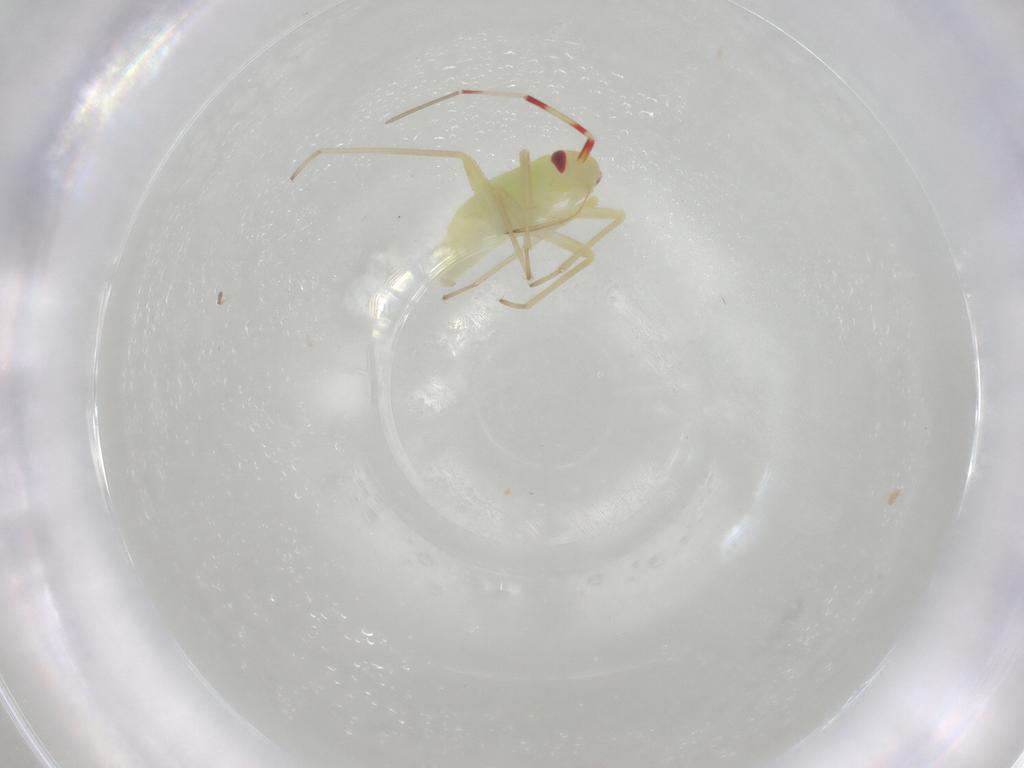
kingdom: Animalia
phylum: Arthropoda
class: Insecta
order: Hemiptera
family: Miridae
